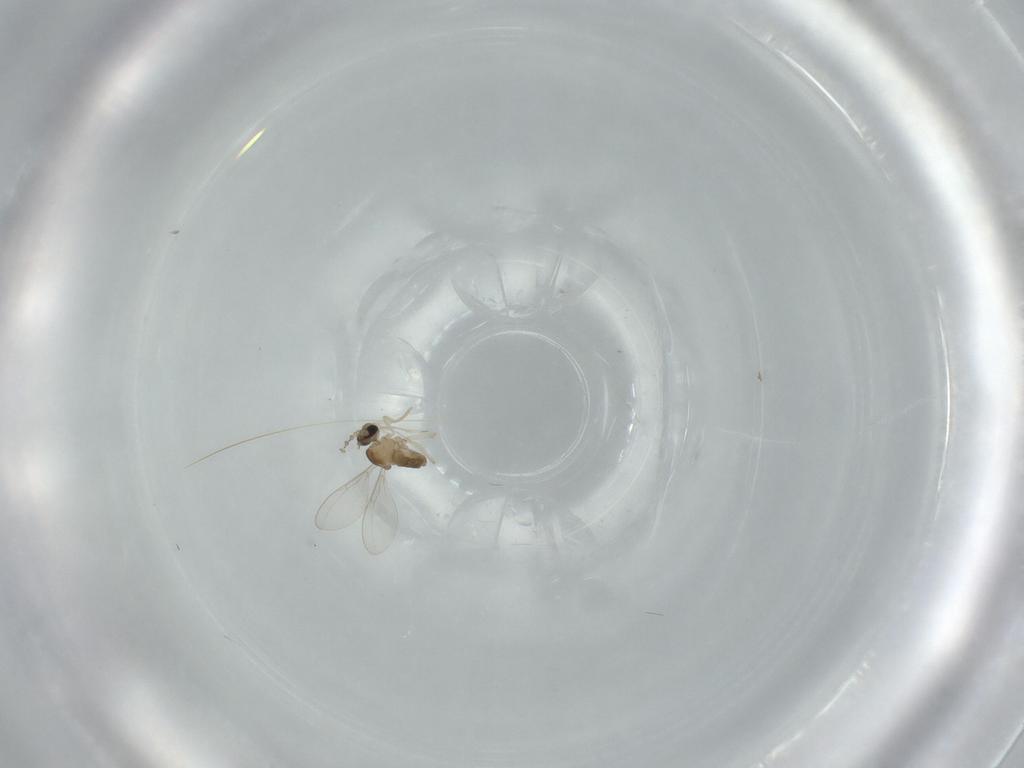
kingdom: Animalia
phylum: Arthropoda
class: Insecta
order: Diptera
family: Cecidomyiidae
